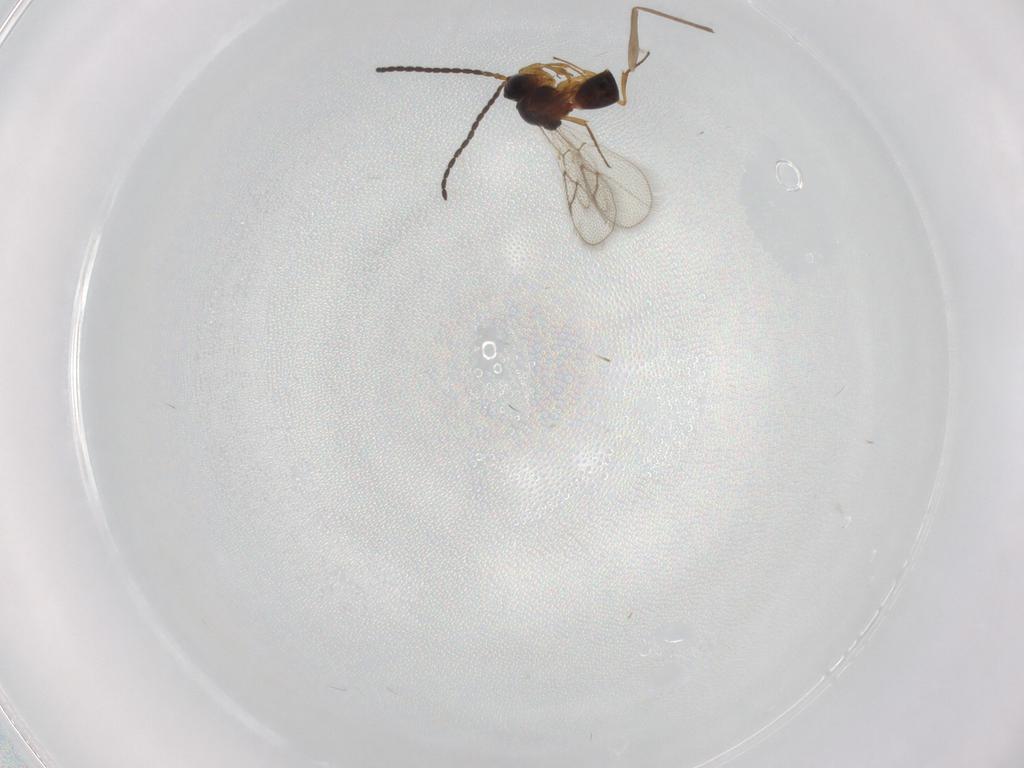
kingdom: Animalia
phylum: Arthropoda
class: Insecta
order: Hymenoptera
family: Figitidae
